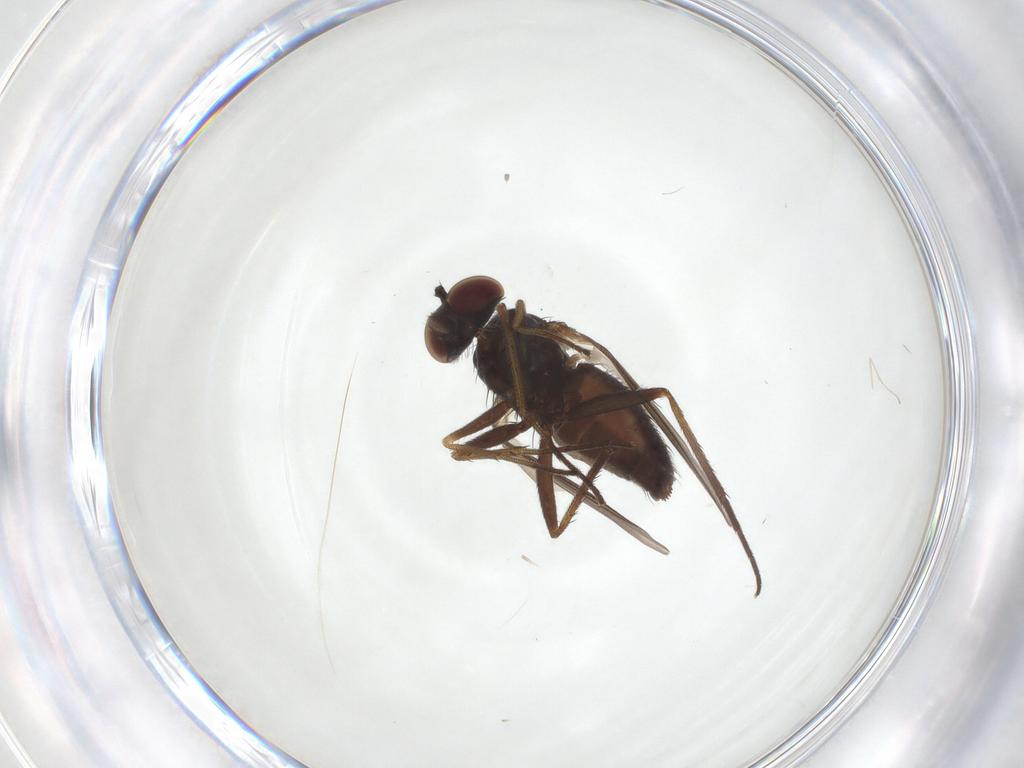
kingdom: Animalia
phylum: Arthropoda
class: Insecta
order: Diptera
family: Dolichopodidae
